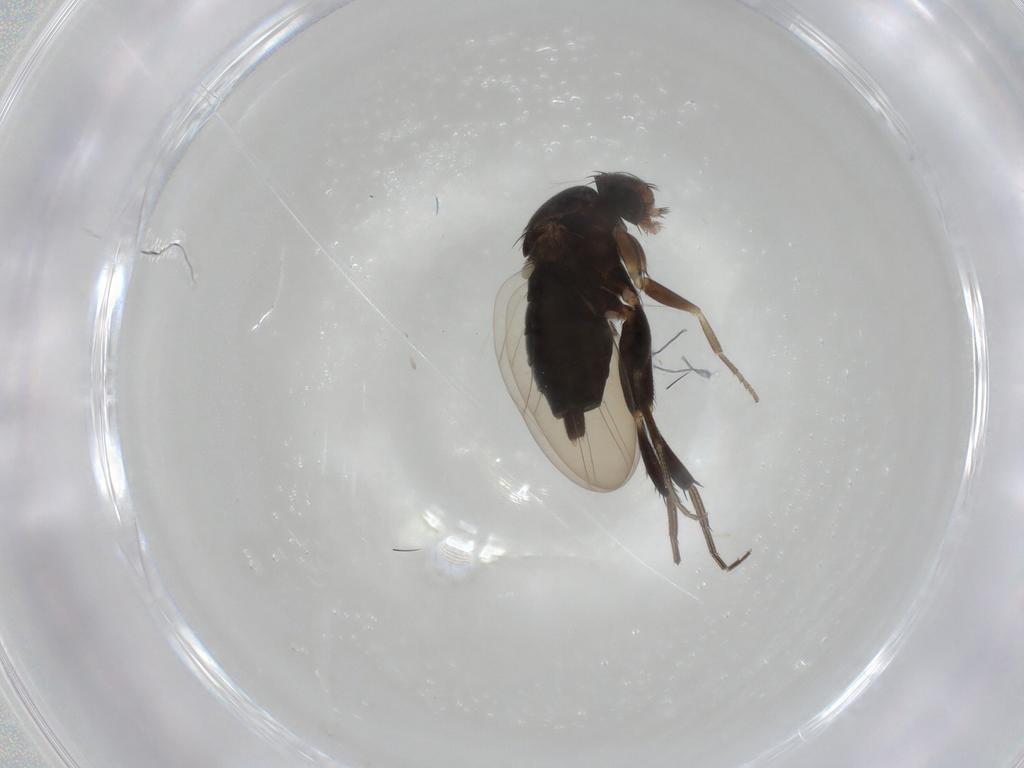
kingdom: Animalia
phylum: Arthropoda
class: Insecta
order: Diptera
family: Phoridae
